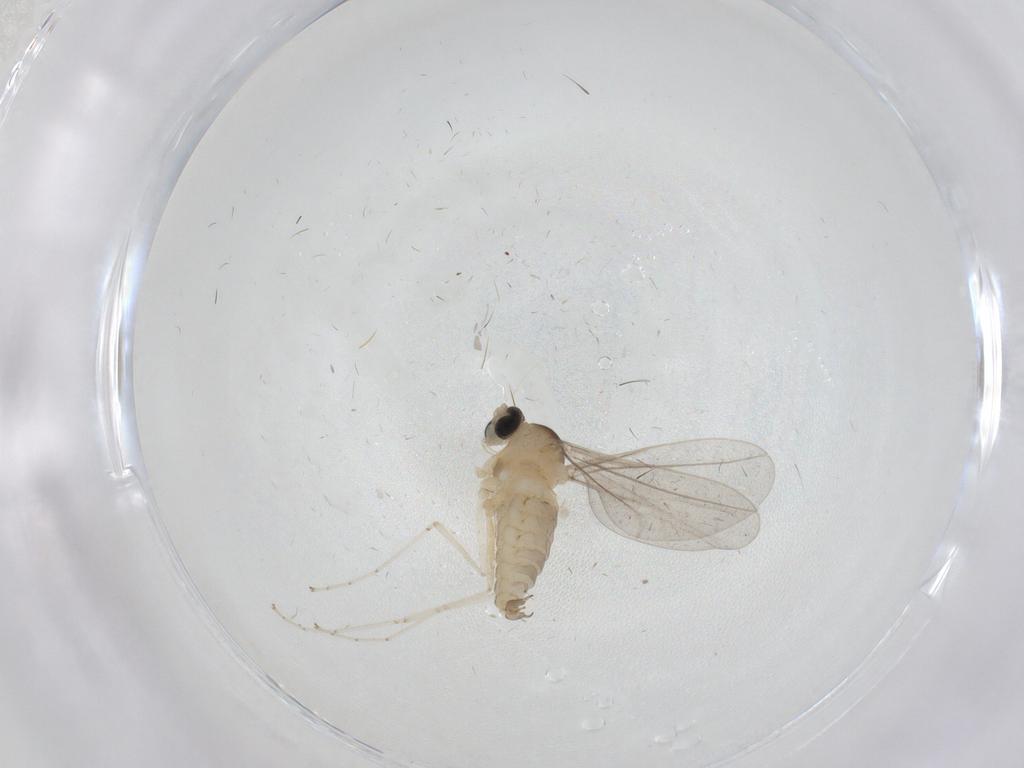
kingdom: Animalia
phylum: Arthropoda
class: Insecta
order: Diptera
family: Cecidomyiidae
